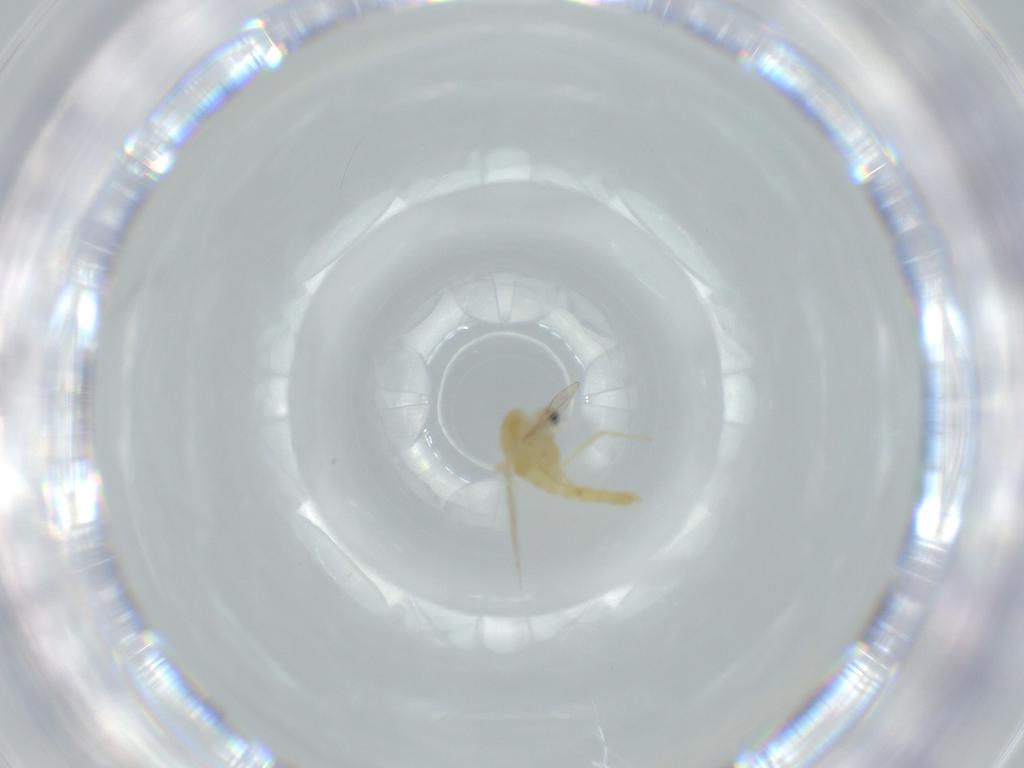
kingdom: Animalia
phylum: Arthropoda
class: Insecta
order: Diptera
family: Chironomidae
